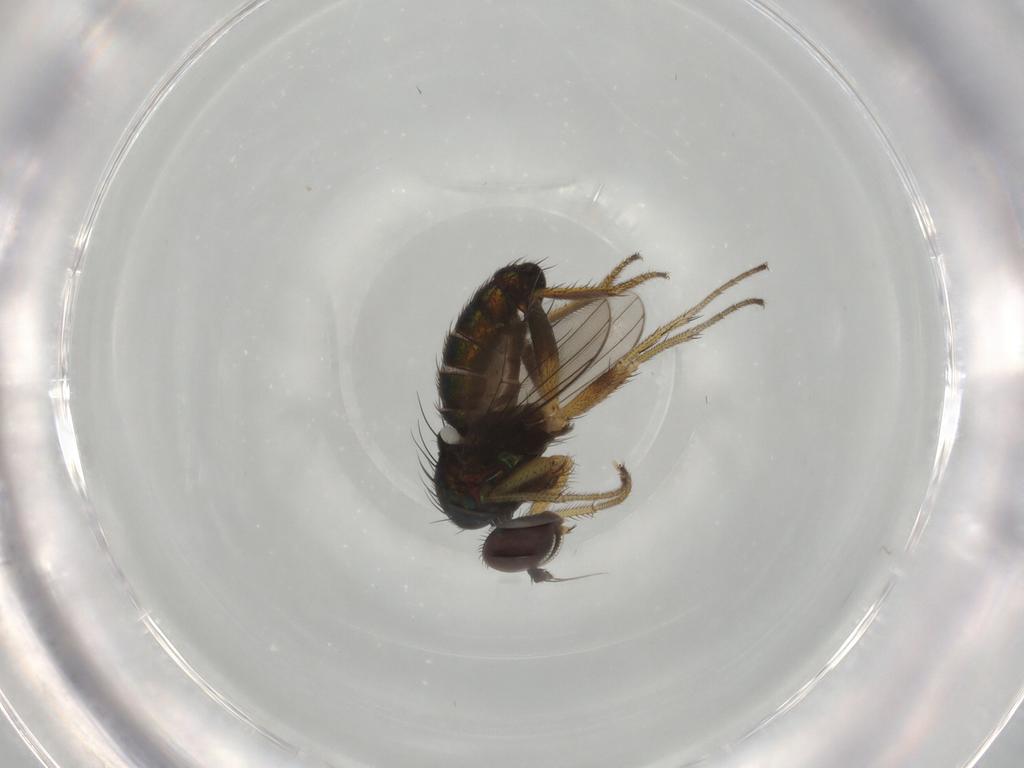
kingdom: Animalia
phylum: Arthropoda
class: Insecta
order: Diptera
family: Dolichopodidae
